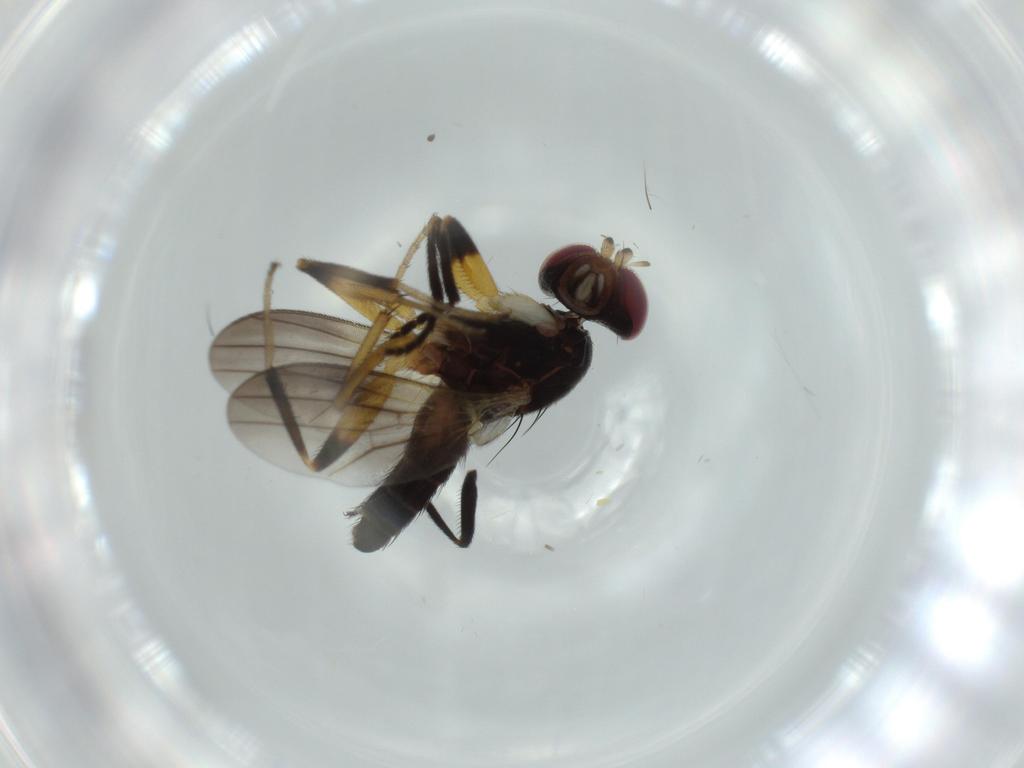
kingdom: Animalia
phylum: Arthropoda
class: Insecta
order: Diptera
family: Clusiidae
